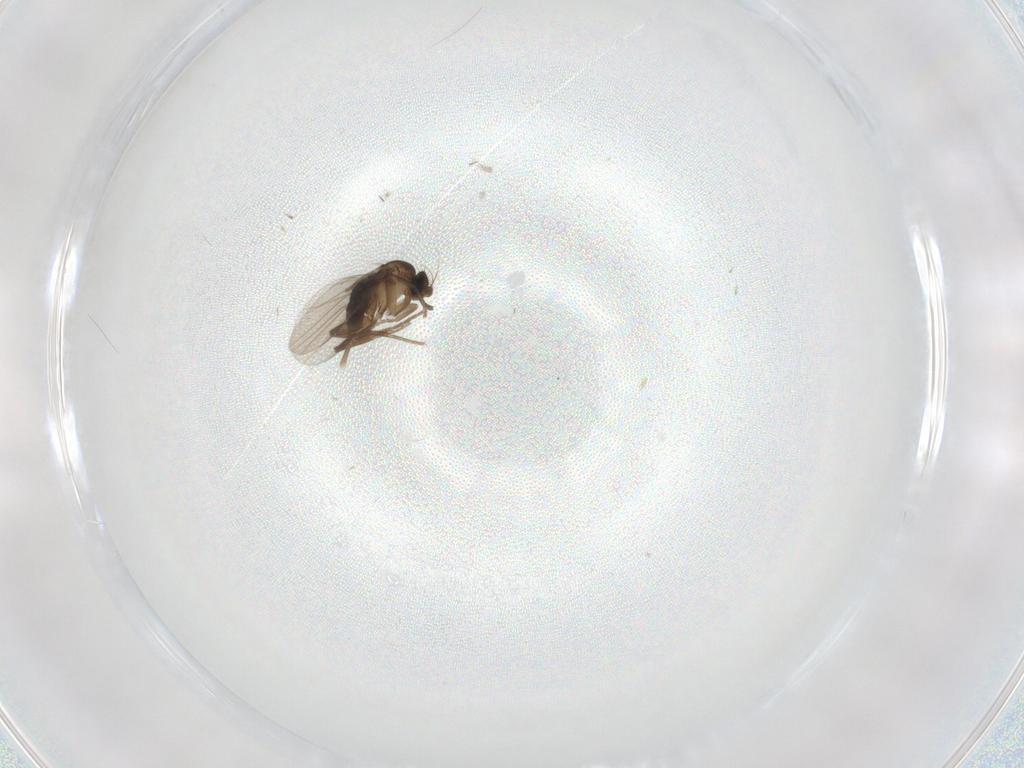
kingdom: Animalia
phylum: Arthropoda
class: Insecta
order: Diptera
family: Phoridae
